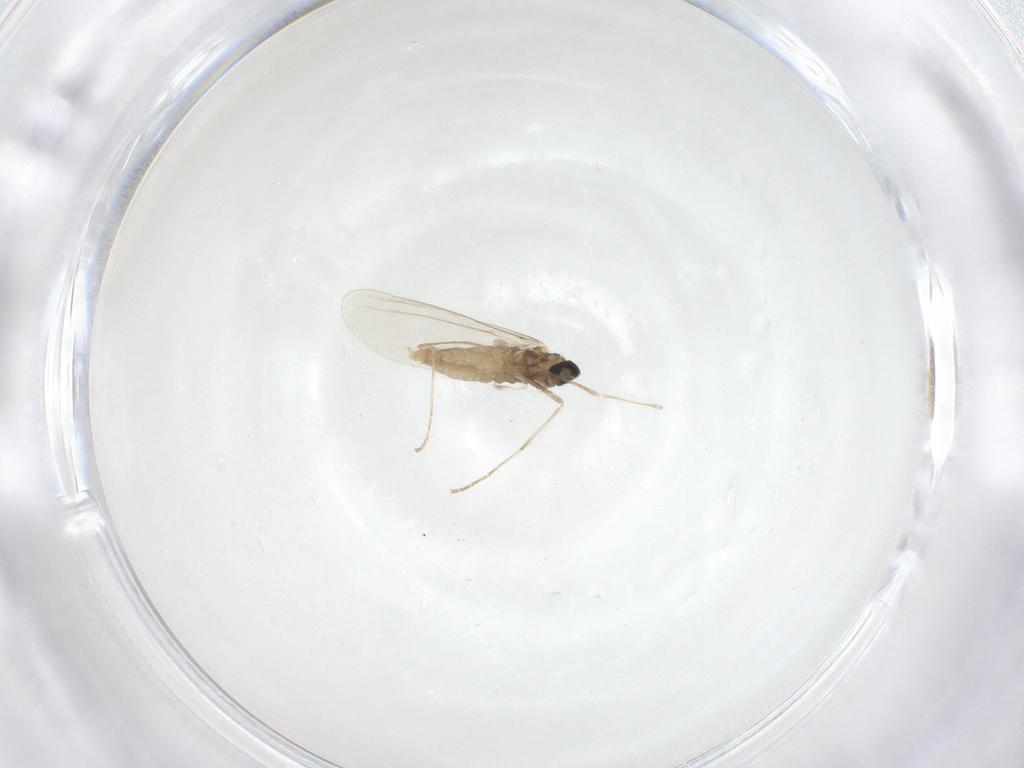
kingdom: Animalia
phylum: Arthropoda
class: Insecta
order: Diptera
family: Cecidomyiidae
